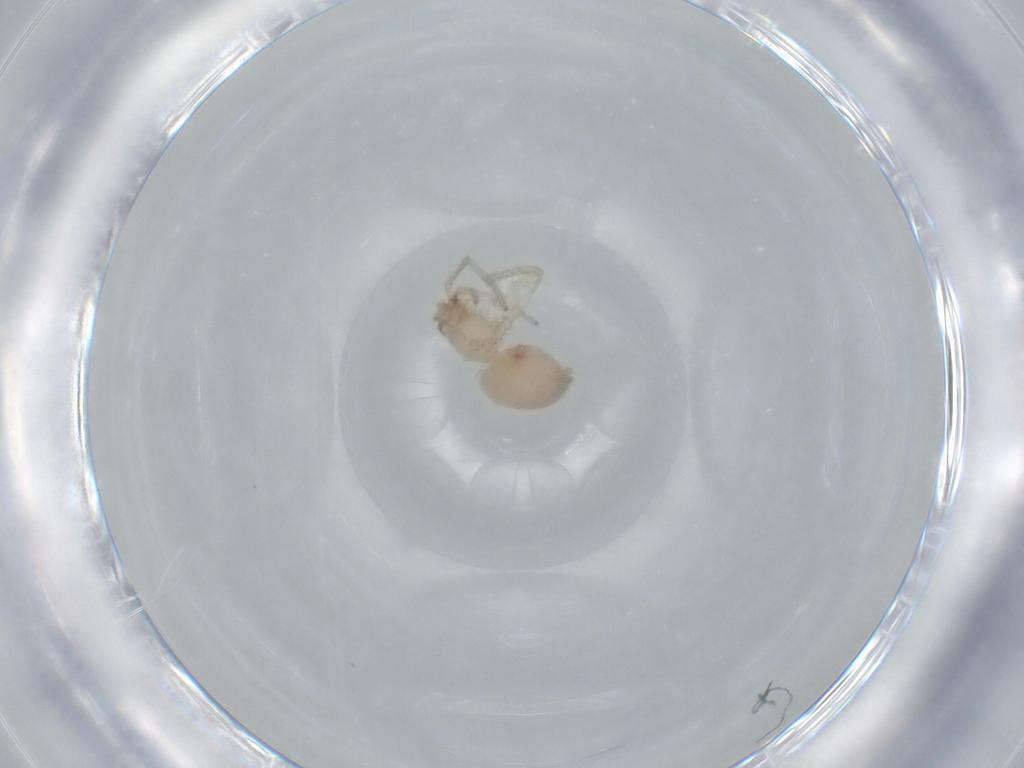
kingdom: Animalia
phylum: Arthropoda
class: Arachnida
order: Araneae
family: Oonopidae
